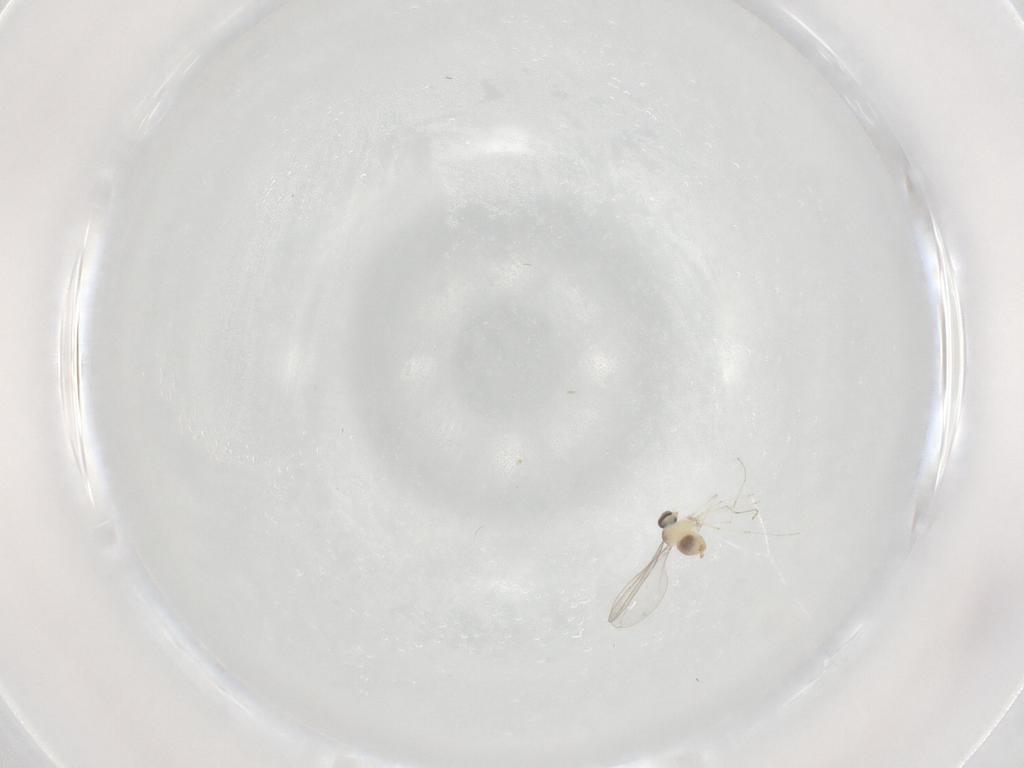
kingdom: Animalia
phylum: Arthropoda
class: Insecta
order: Diptera
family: Cecidomyiidae
